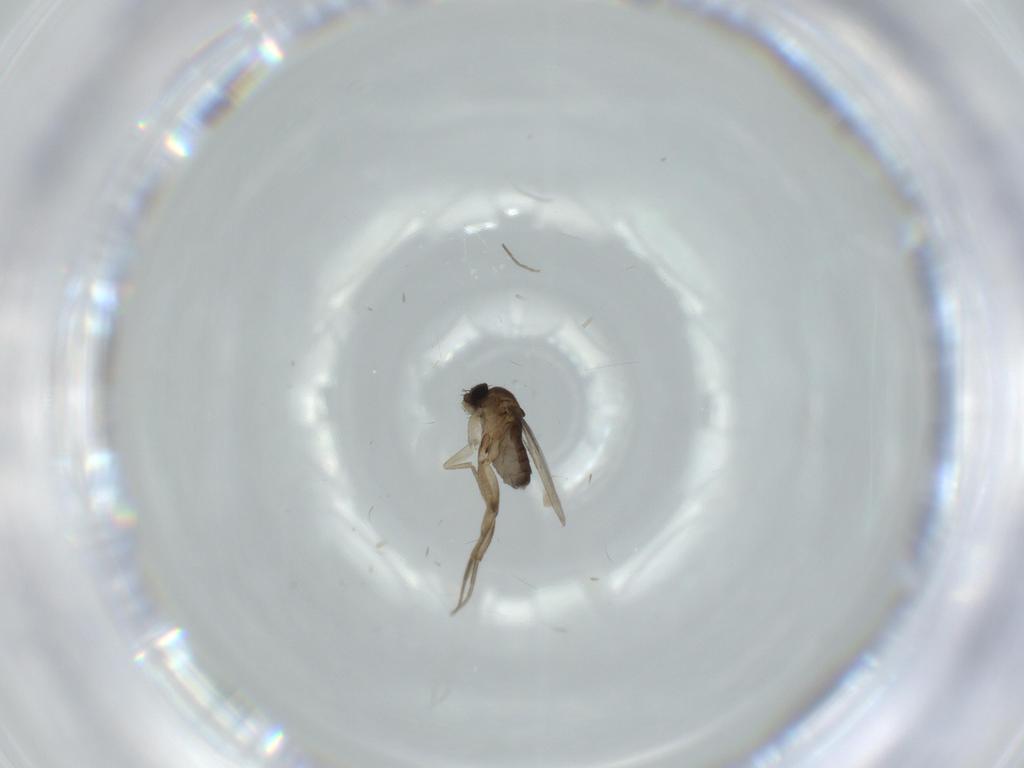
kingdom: Animalia
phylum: Arthropoda
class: Insecta
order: Diptera
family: Phoridae
